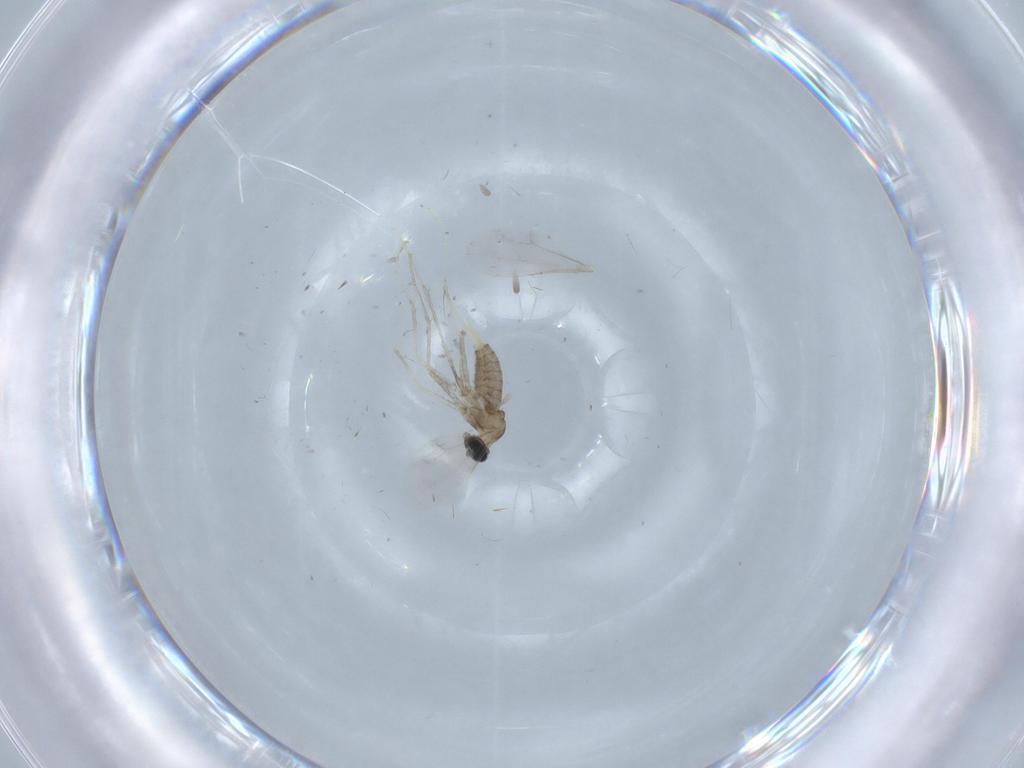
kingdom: Animalia
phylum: Arthropoda
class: Insecta
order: Diptera
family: Cecidomyiidae
